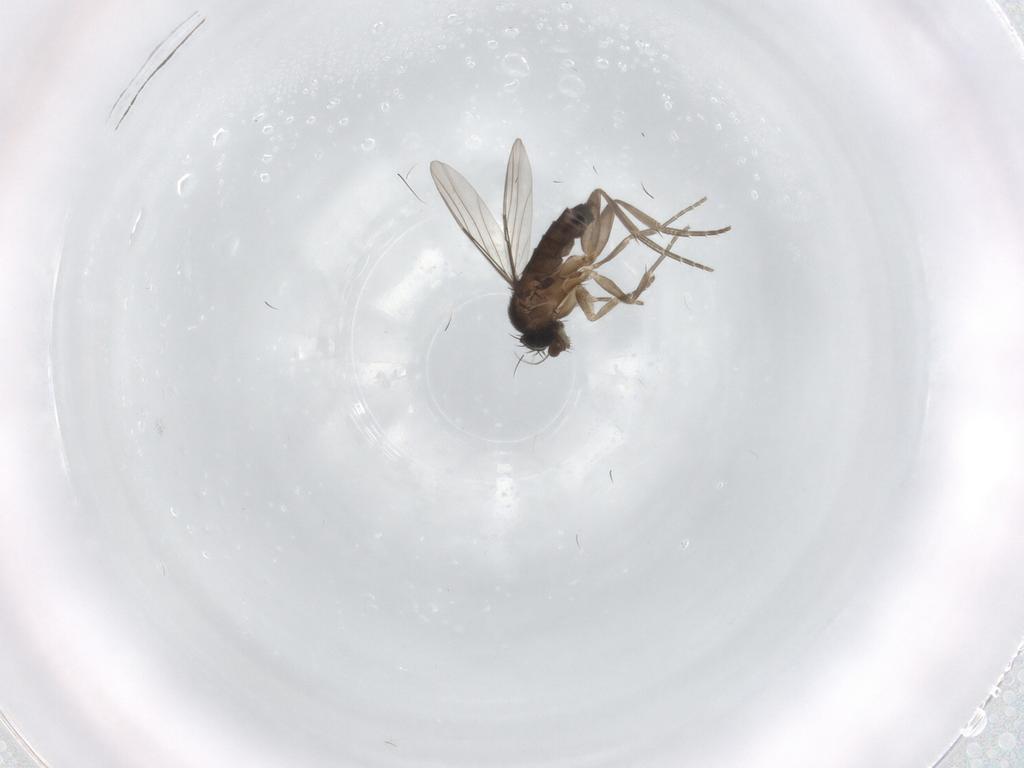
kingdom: Animalia
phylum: Arthropoda
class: Insecta
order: Diptera
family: Phoridae
